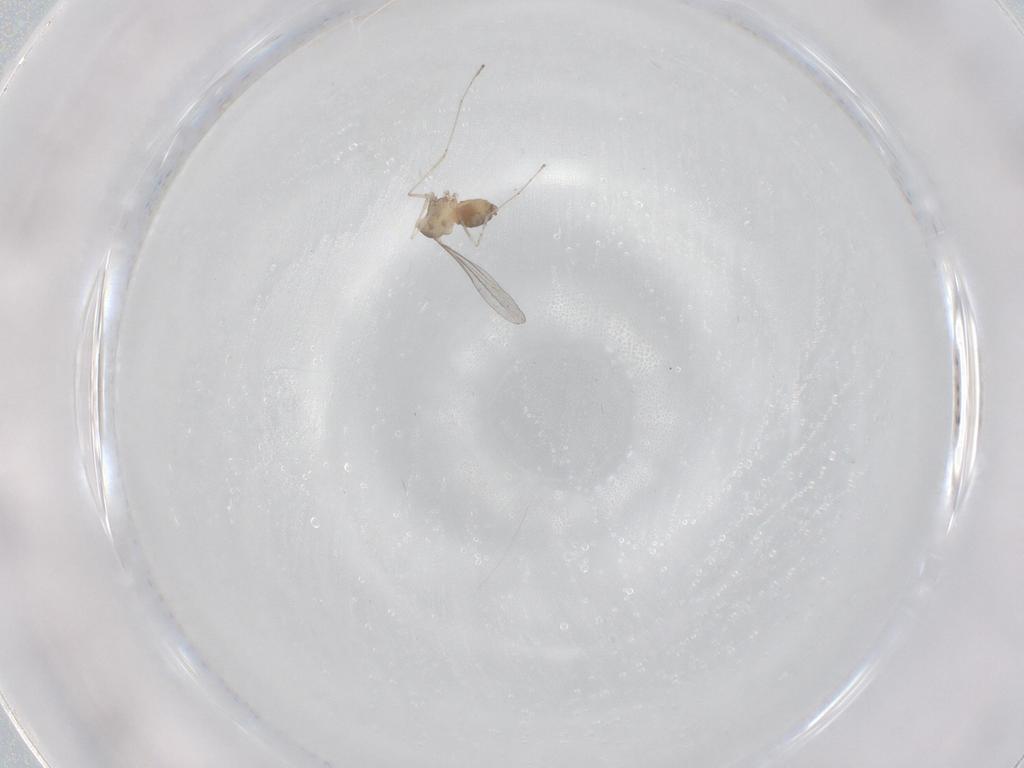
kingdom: Animalia
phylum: Arthropoda
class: Insecta
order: Diptera
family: Cecidomyiidae
